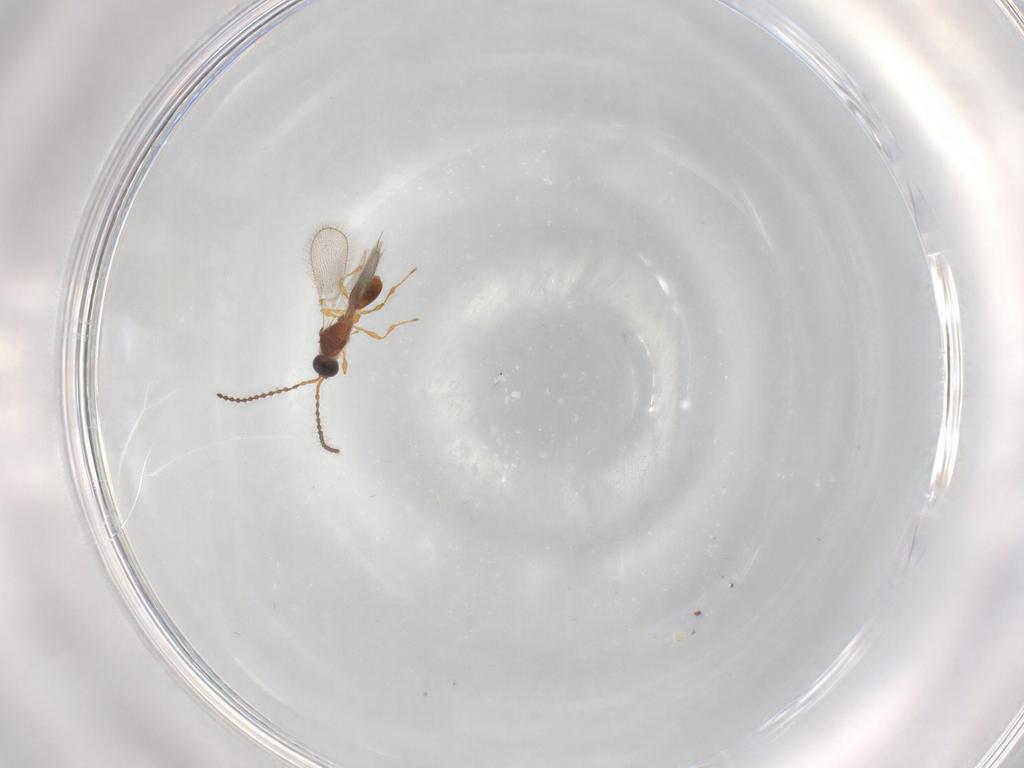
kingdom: Animalia
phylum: Arthropoda
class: Insecta
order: Hymenoptera
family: Diapriidae
